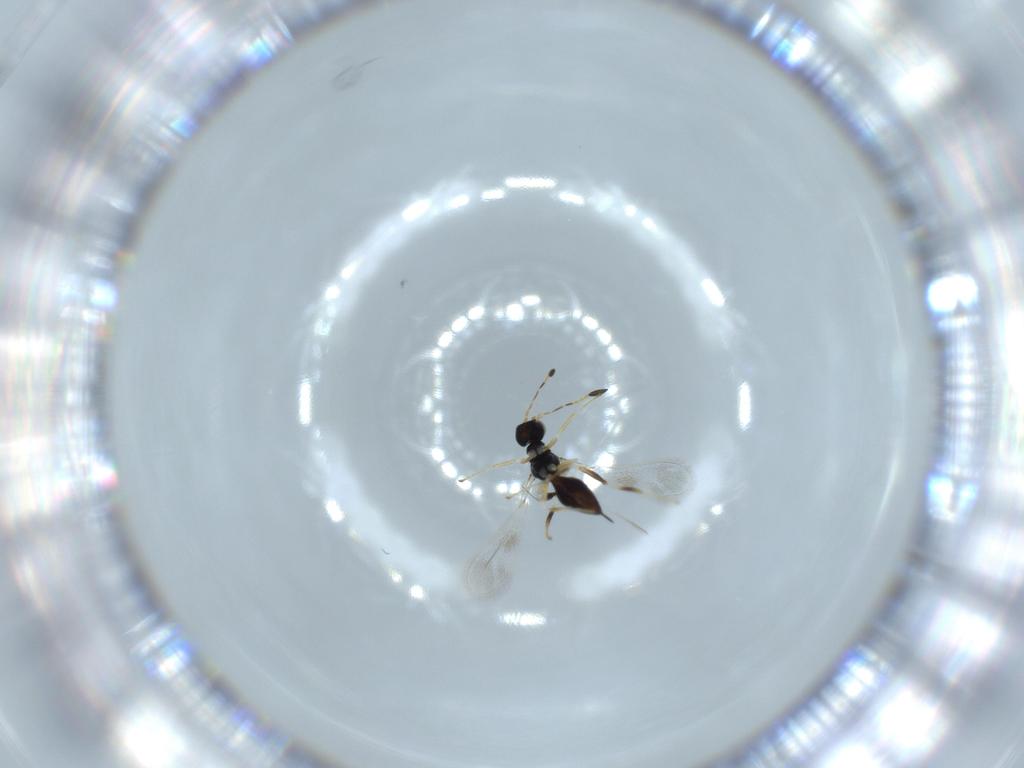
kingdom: Animalia
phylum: Arthropoda
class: Insecta
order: Hymenoptera
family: Mymaridae
